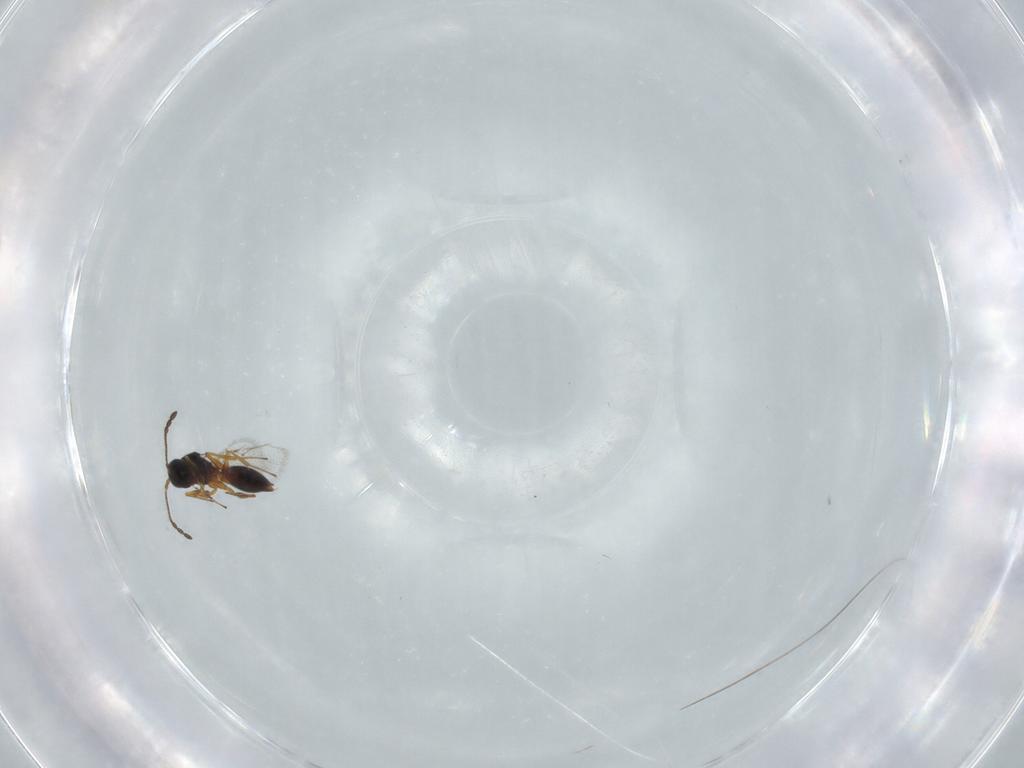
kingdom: Animalia
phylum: Arthropoda
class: Insecta
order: Hymenoptera
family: Figitidae
